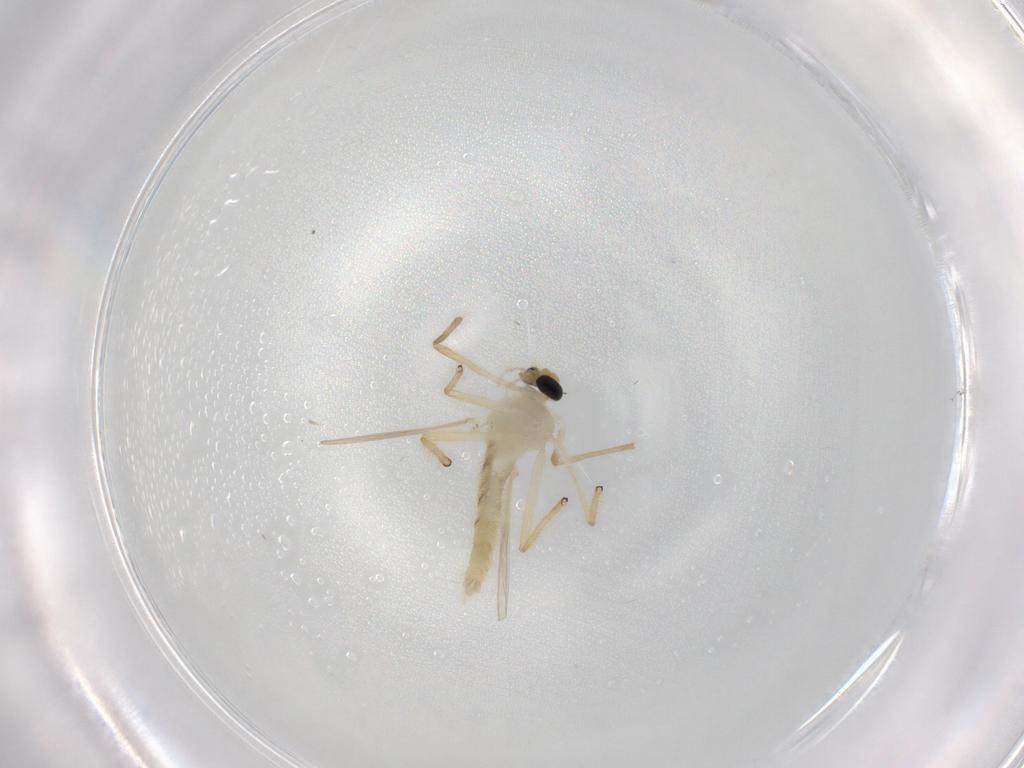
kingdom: Animalia
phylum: Arthropoda
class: Insecta
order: Diptera
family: Chironomidae
